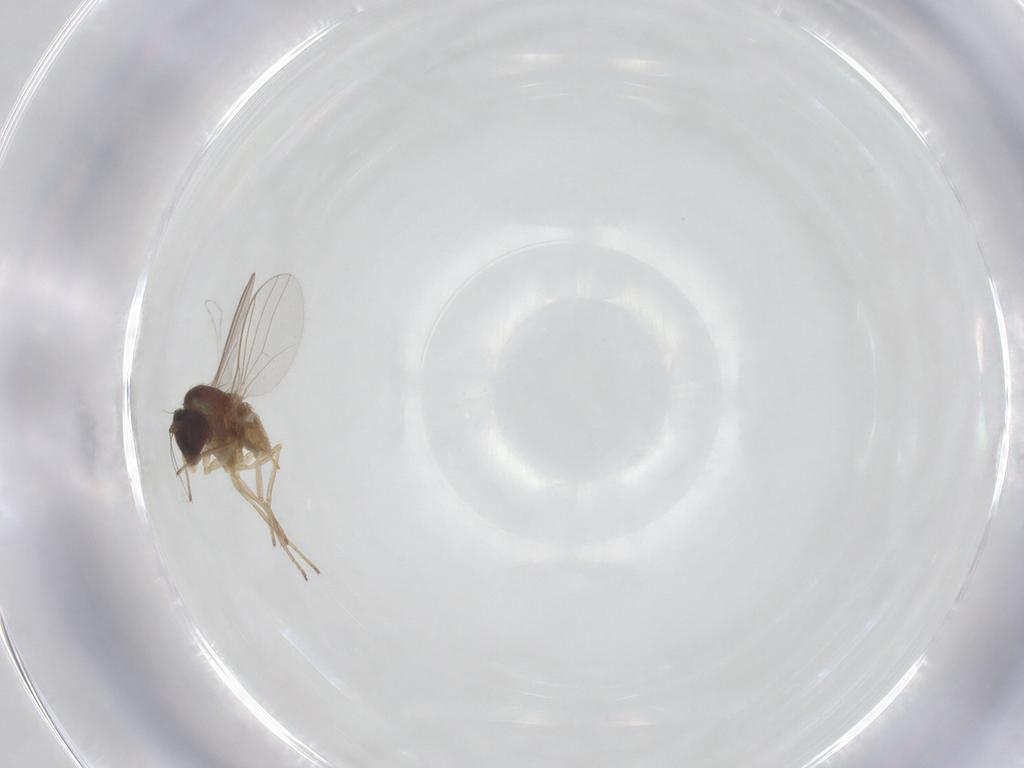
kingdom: Animalia
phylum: Arthropoda
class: Insecta
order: Diptera
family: Dolichopodidae
